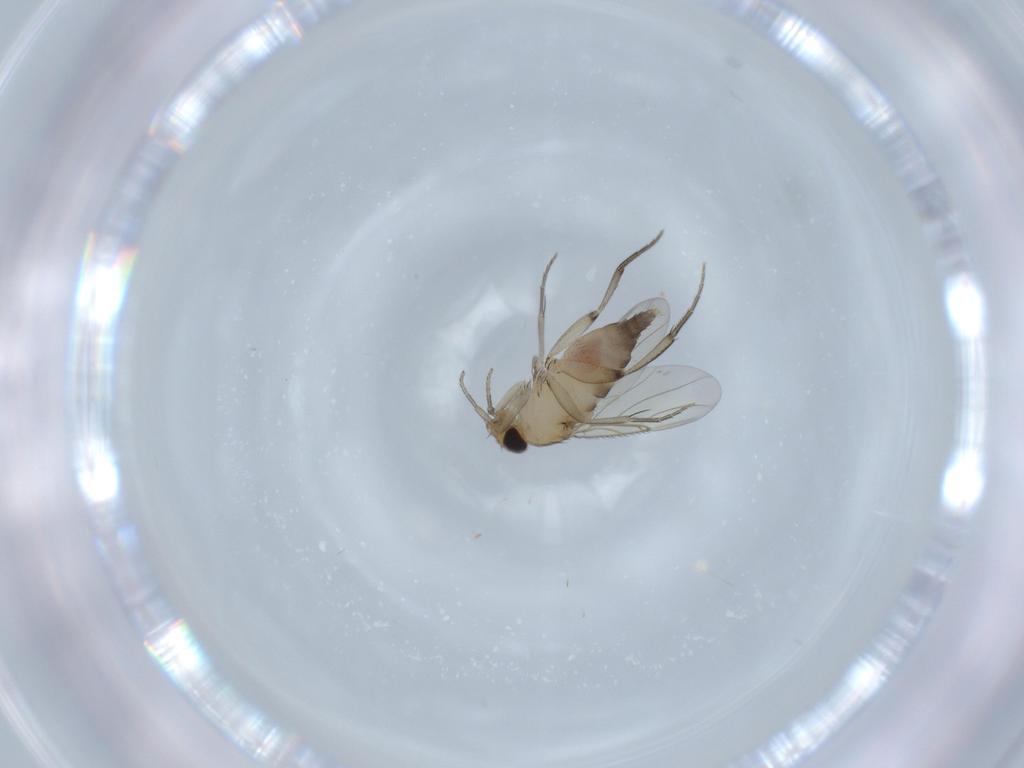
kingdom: Animalia
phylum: Arthropoda
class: Insecta
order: Diptera
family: Phoridae
